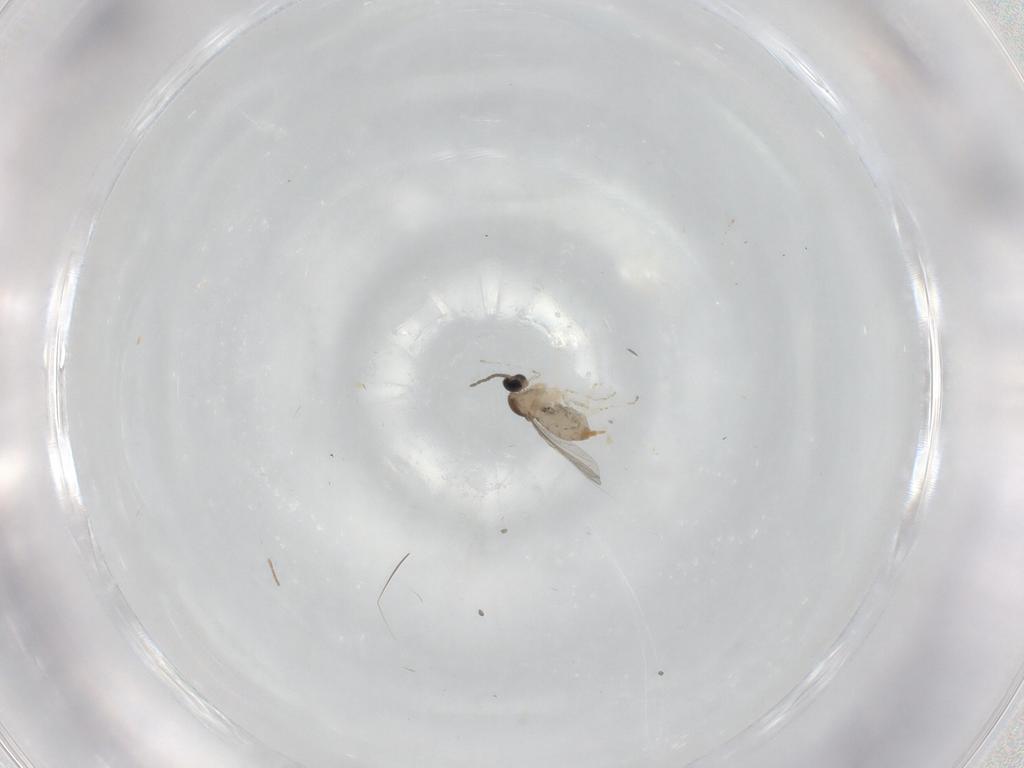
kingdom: Animalia
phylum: Arthropoda
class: Insecta
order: Diptera
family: Cecidomyiidae
